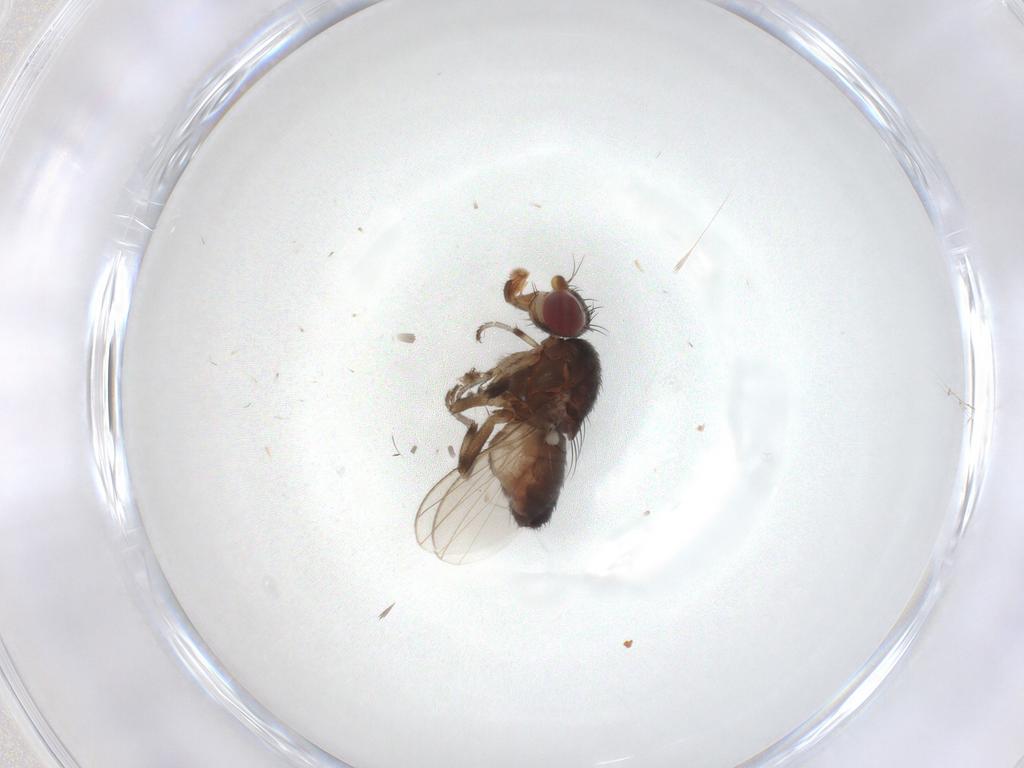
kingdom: Animalia
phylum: Arthropoda
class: Insecta
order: Diptera
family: Heleomyzidae
